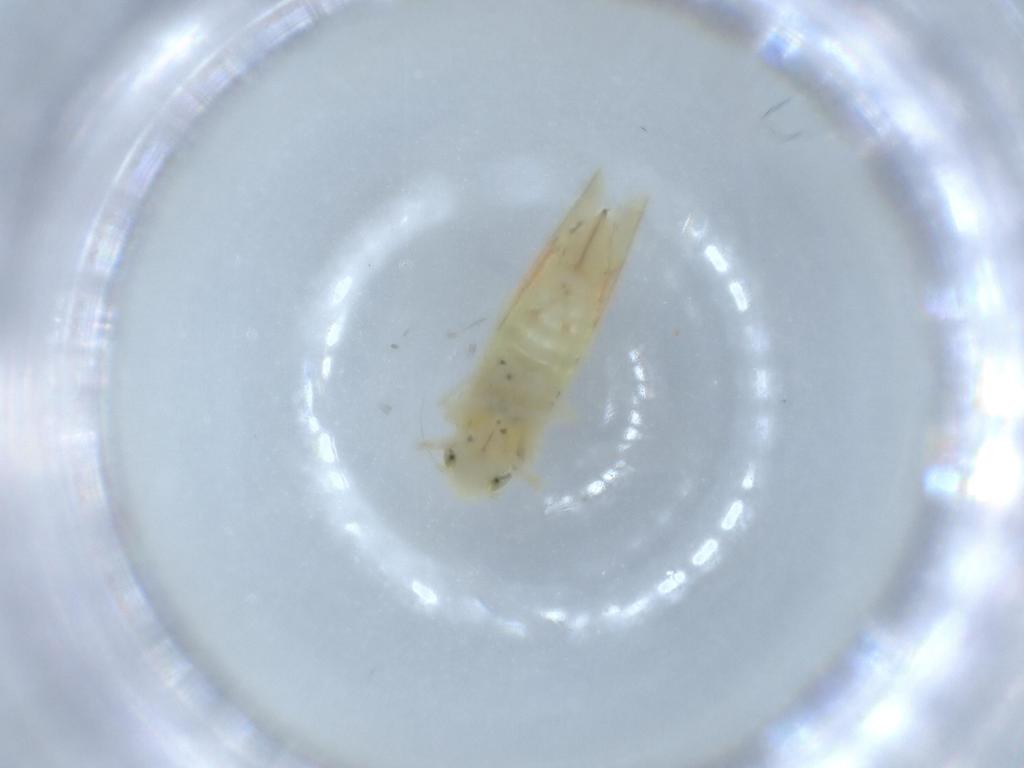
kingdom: Animalia
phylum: Arthropoda
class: Insecta
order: Hemiptera
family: Cicadellidae
